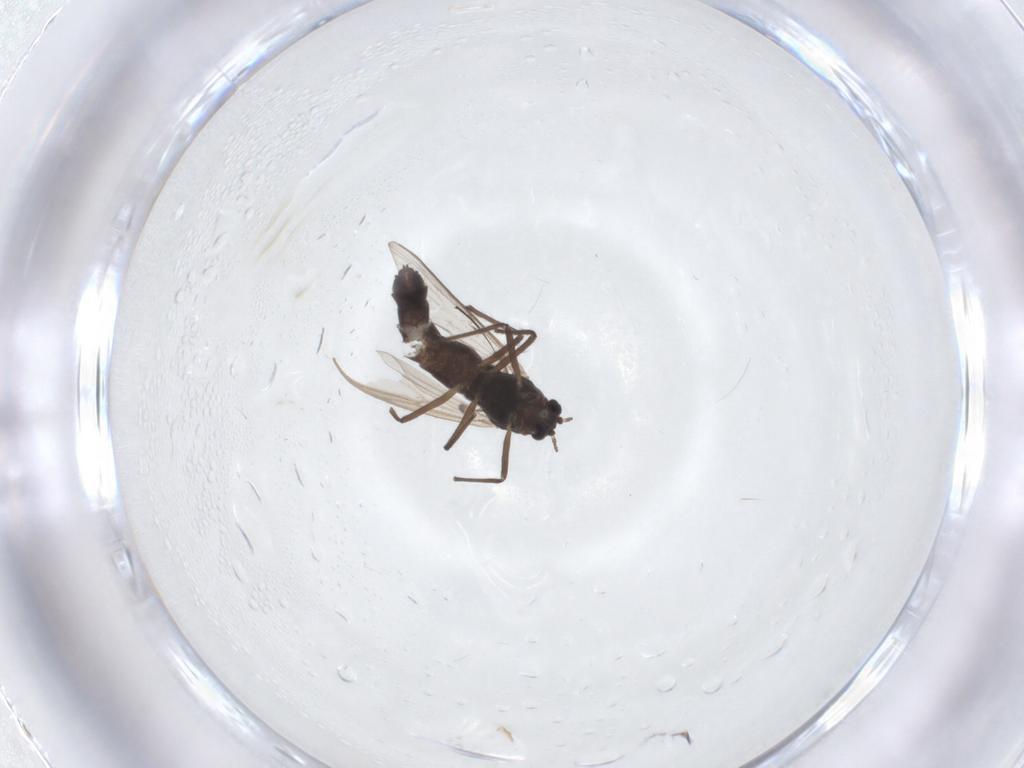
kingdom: Animalia
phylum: Arthropoda
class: Insecta
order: Diptera
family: Chironomidae
